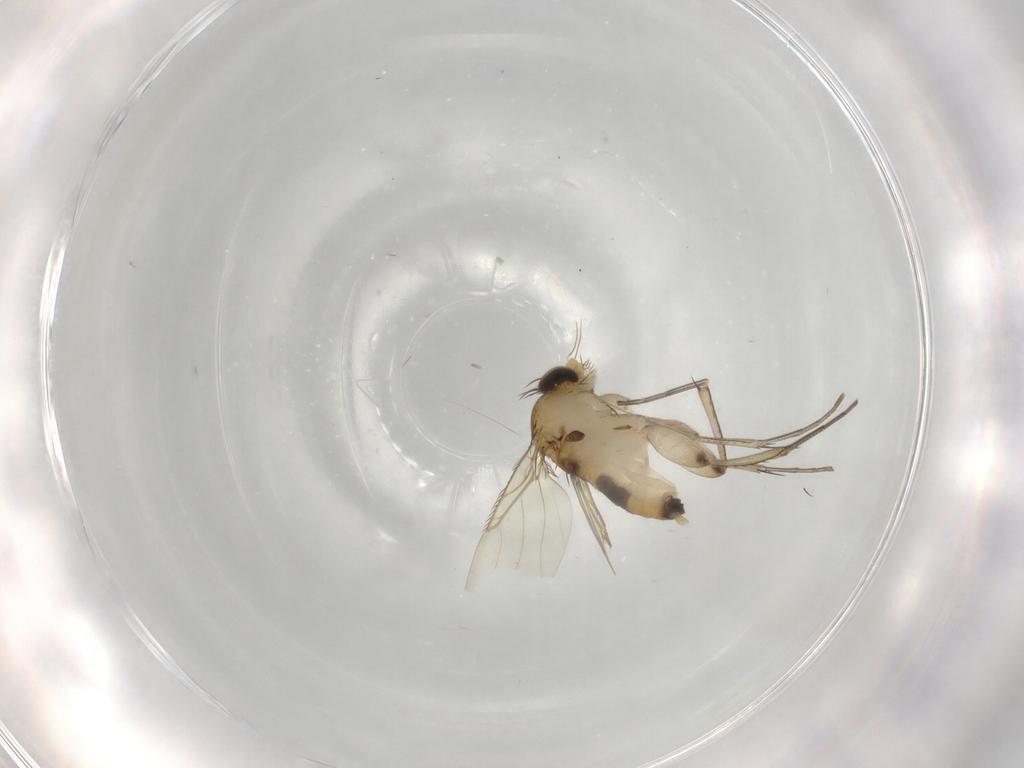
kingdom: Animalia
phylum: Arthropoda
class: Insecta
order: Diptera
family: Phoridae
